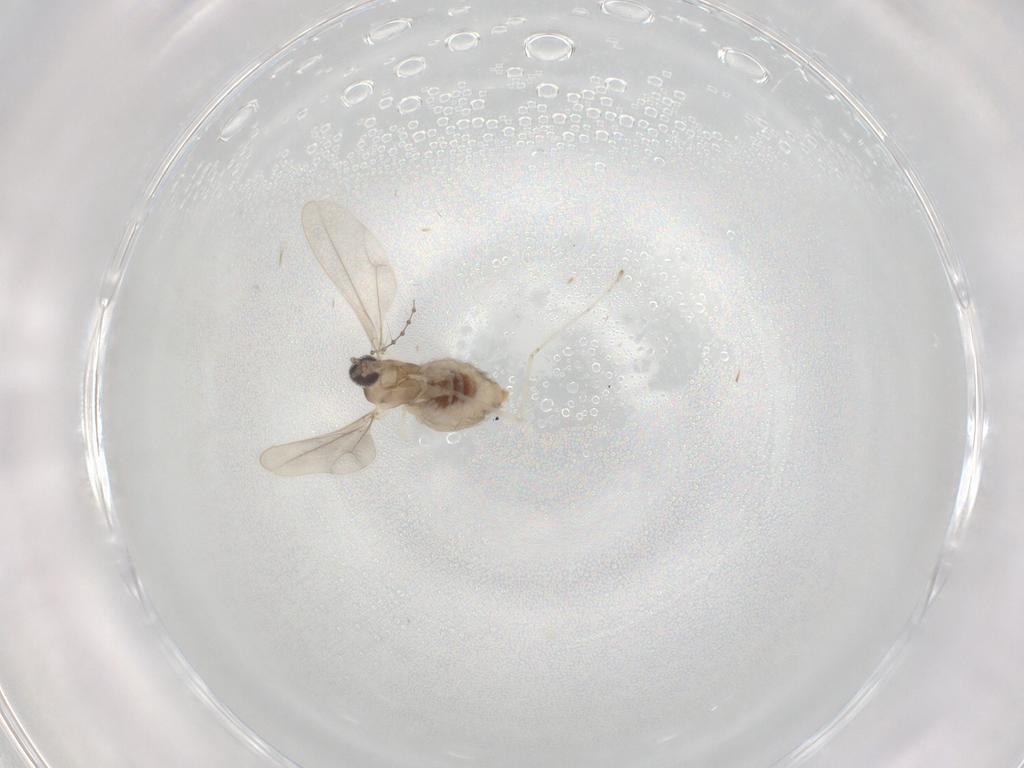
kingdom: Animalia
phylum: Arthropoda
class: Insecta
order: Diptera
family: Cecidomyiidae
